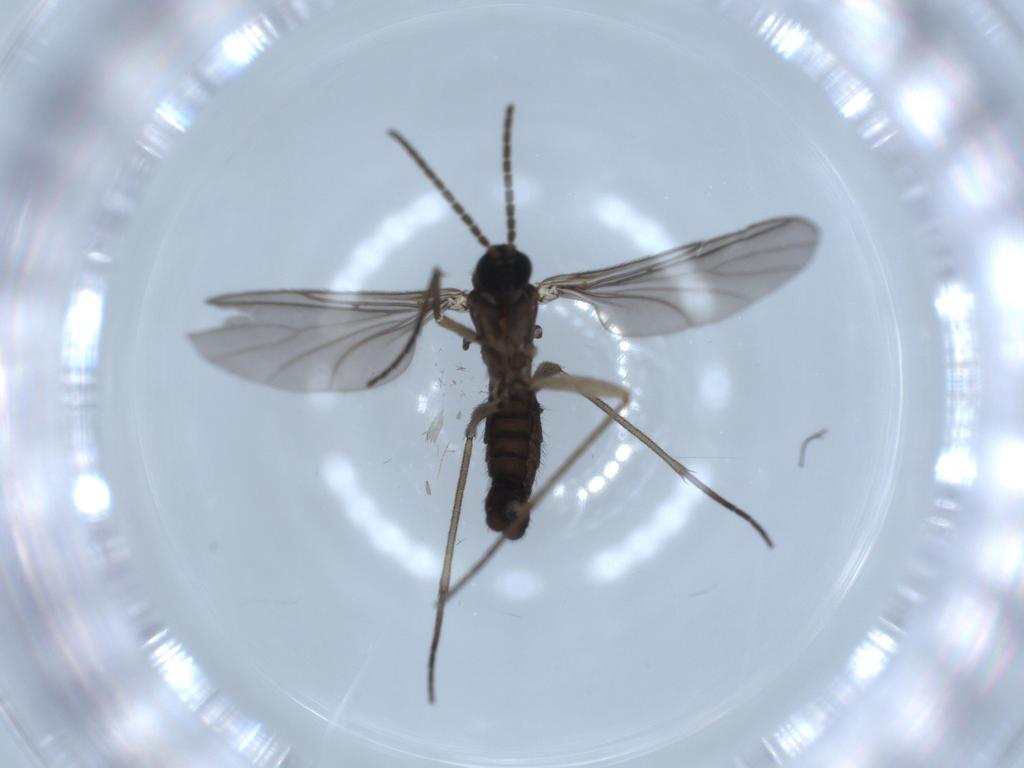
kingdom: Animalia
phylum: Arthropoda
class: Insecta
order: Diptera
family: Sciaridae
